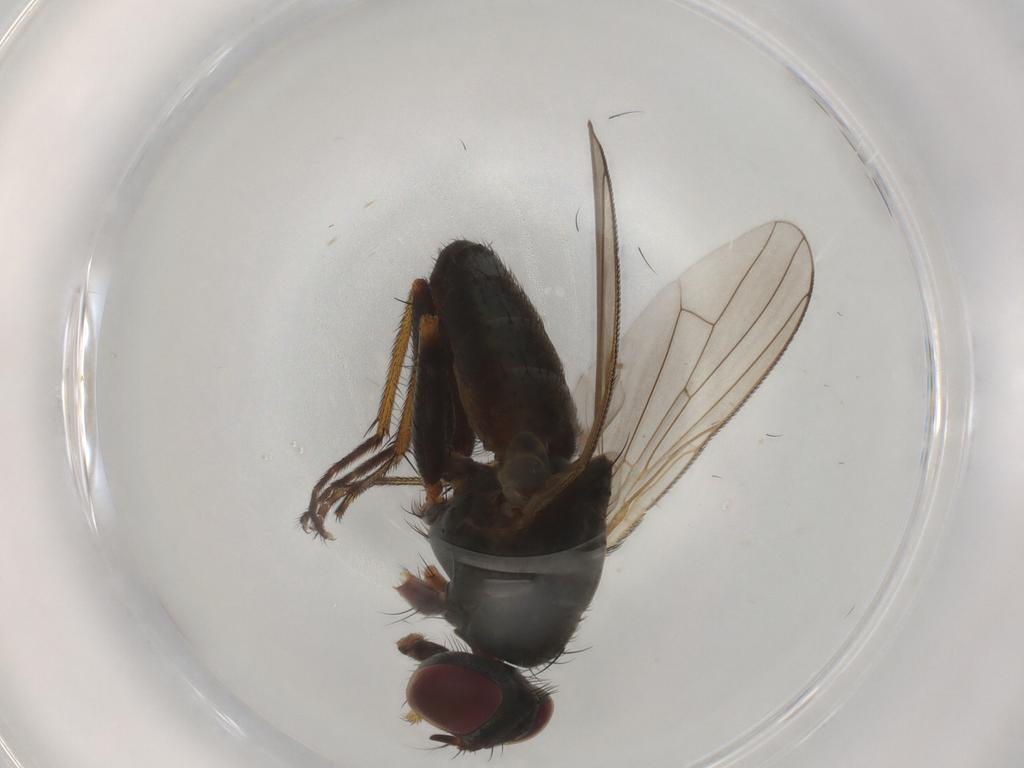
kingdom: Animalia
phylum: Arthropoda
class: Insecta
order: Diptera
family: Muscidae
